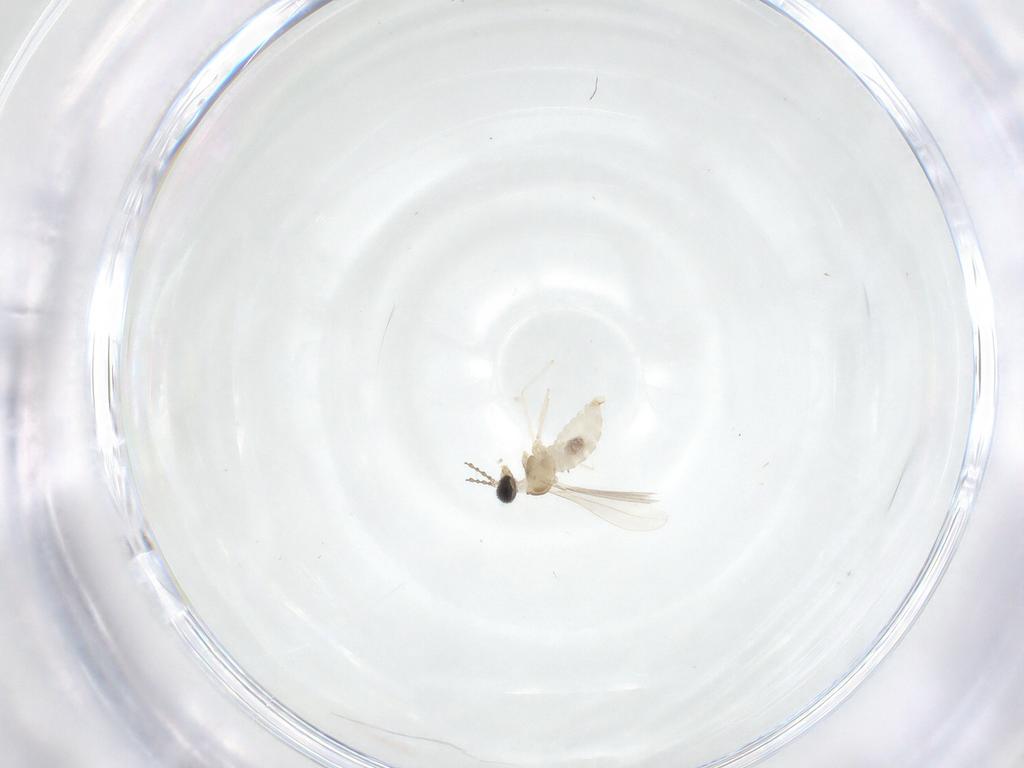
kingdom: Animalia
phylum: Arthropoda
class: Insecta
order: Diptera
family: Cecidomyiidae
